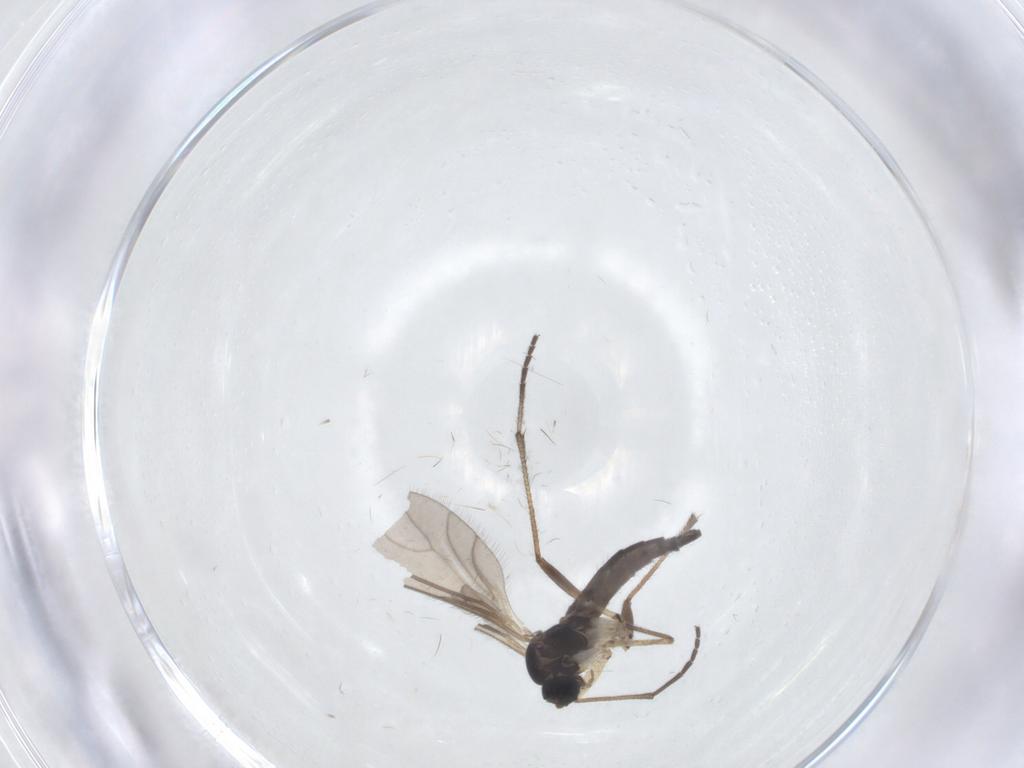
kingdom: Animalia
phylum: Arthropoda
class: Insecta
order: Diptera
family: Sciaridae
